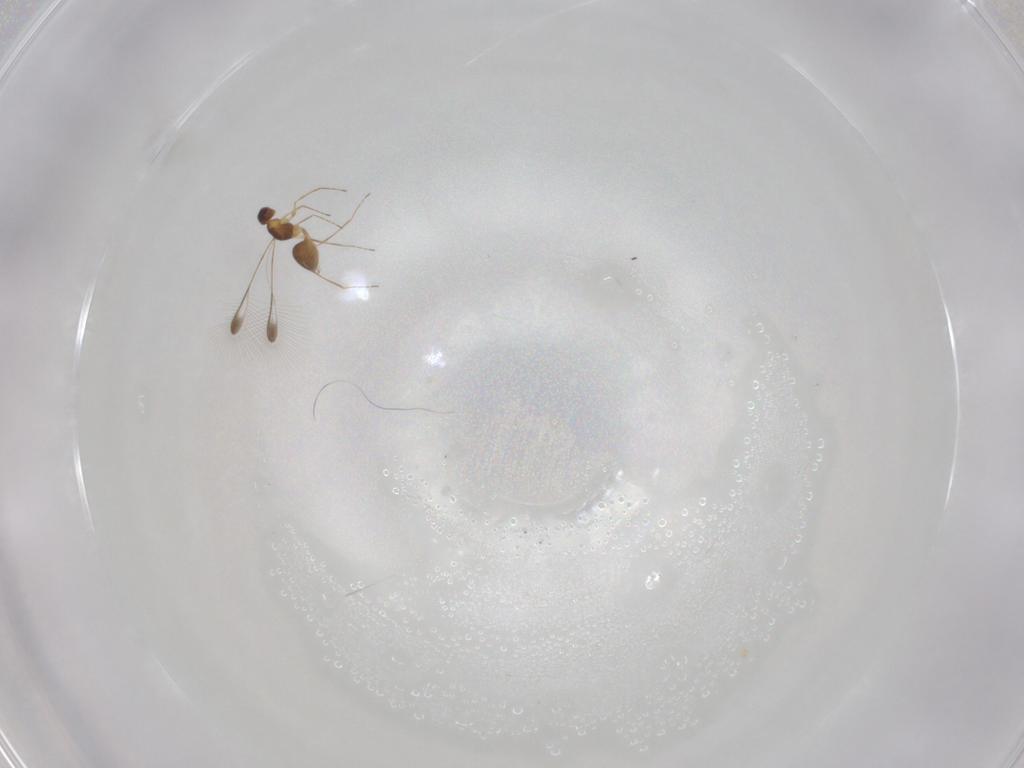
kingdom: Animalia
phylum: Arthropoda
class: Insecta
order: Hymenoptera
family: Mymaridae
